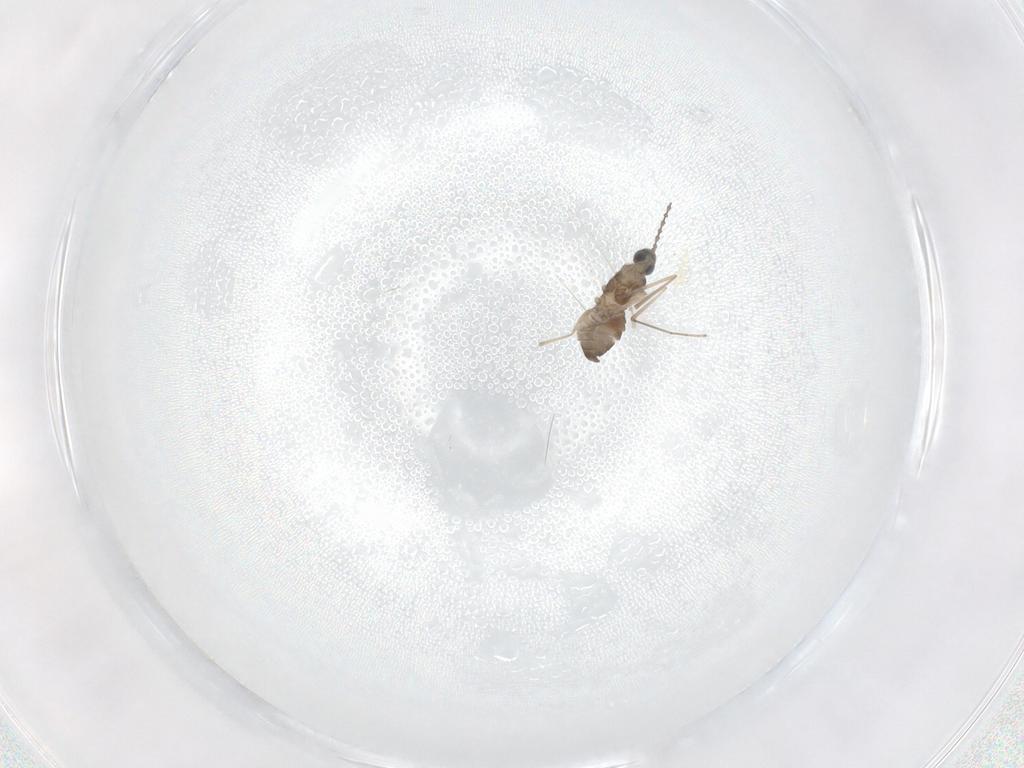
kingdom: Animalia
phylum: Arthropoda
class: Insecta
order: Diptera
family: Cecidomyiidae
